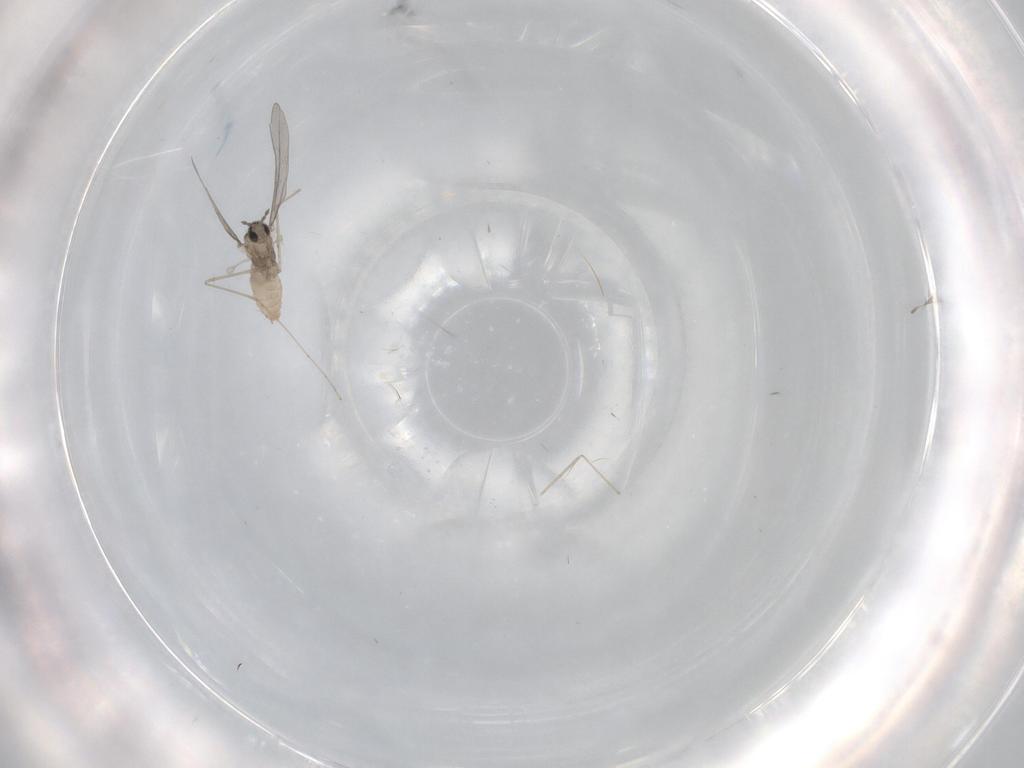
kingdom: Animalia
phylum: Arthropoda
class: Insecta
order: Diptera
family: Cecidomyiidae
